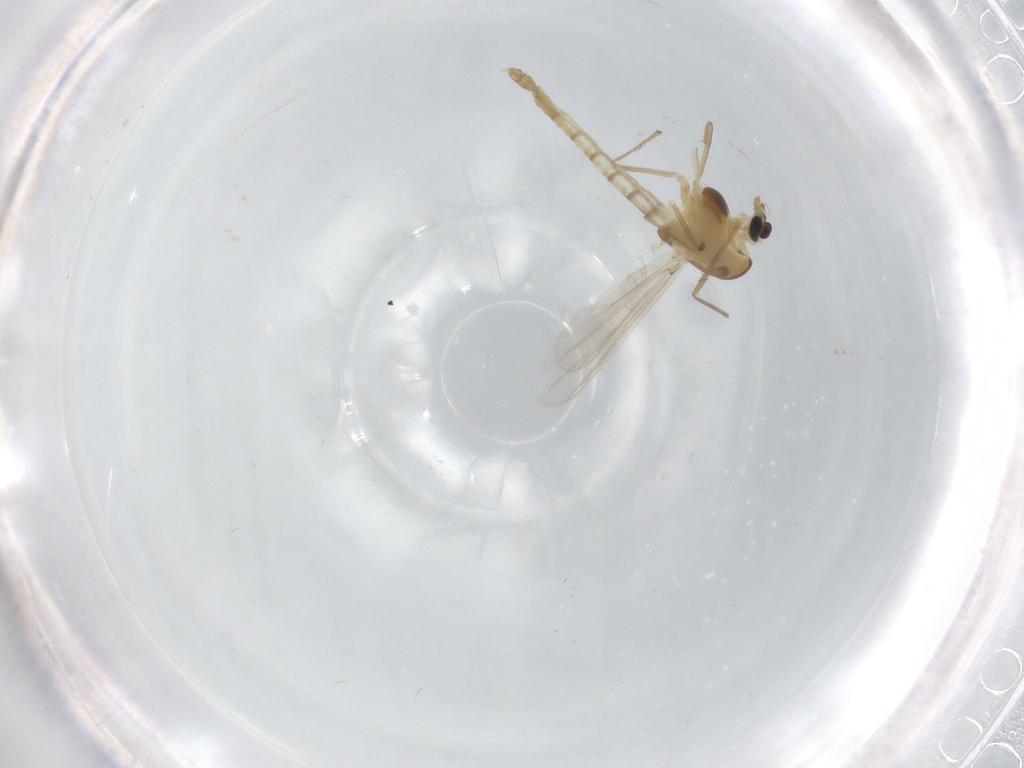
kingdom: Animalia
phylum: Arthropoda
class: Insecta
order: Diptera
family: Chironomidae
